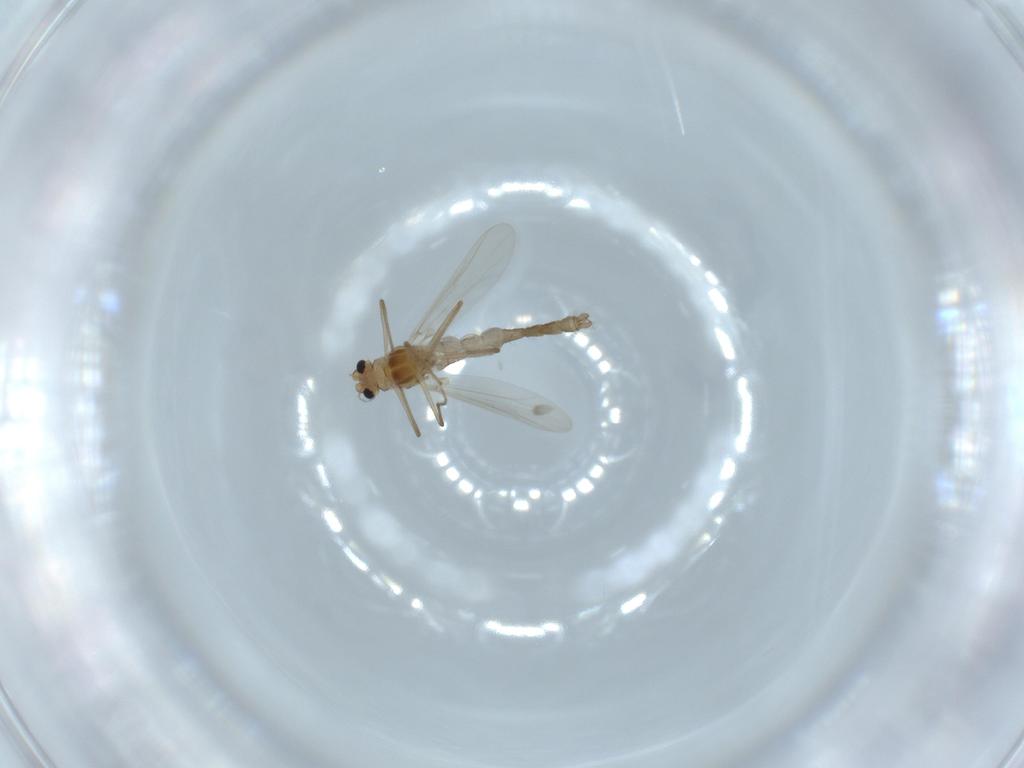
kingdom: Animalia
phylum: Arthropoda
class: Insecta
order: Diptera
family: Chironomidae
